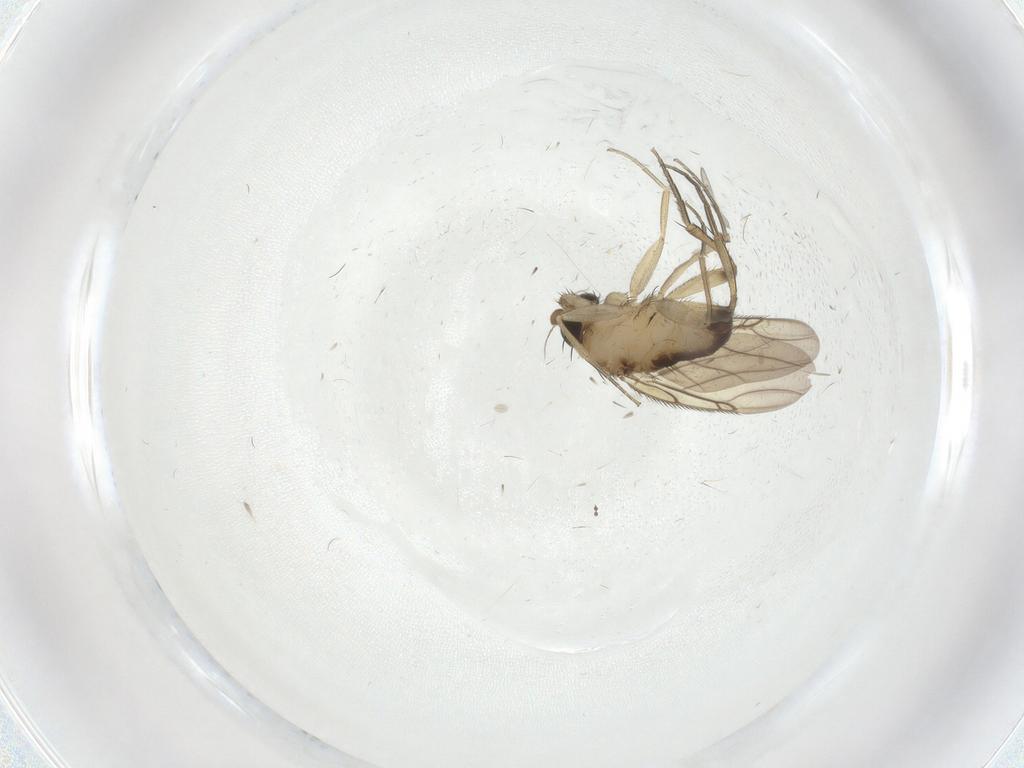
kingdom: Animalia
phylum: Arthropoda
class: Insecta
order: Diptera
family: Phoridae
